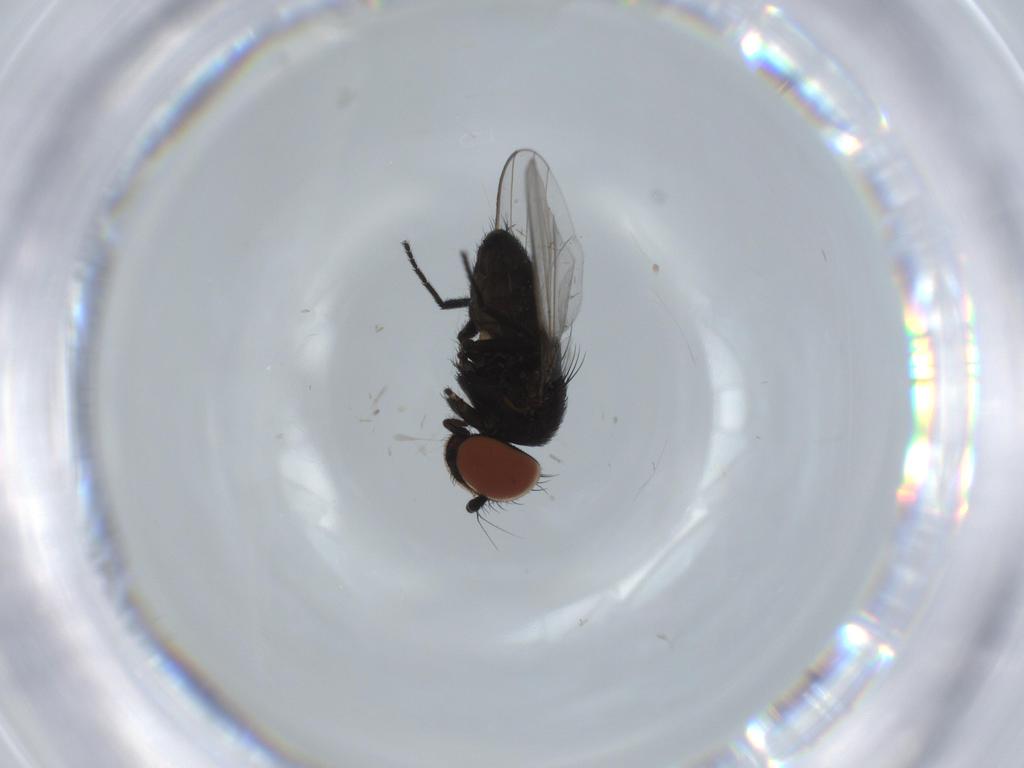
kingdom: Animalia
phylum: Arthropoda
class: Insecta
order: Diptera
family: Milichiidae
